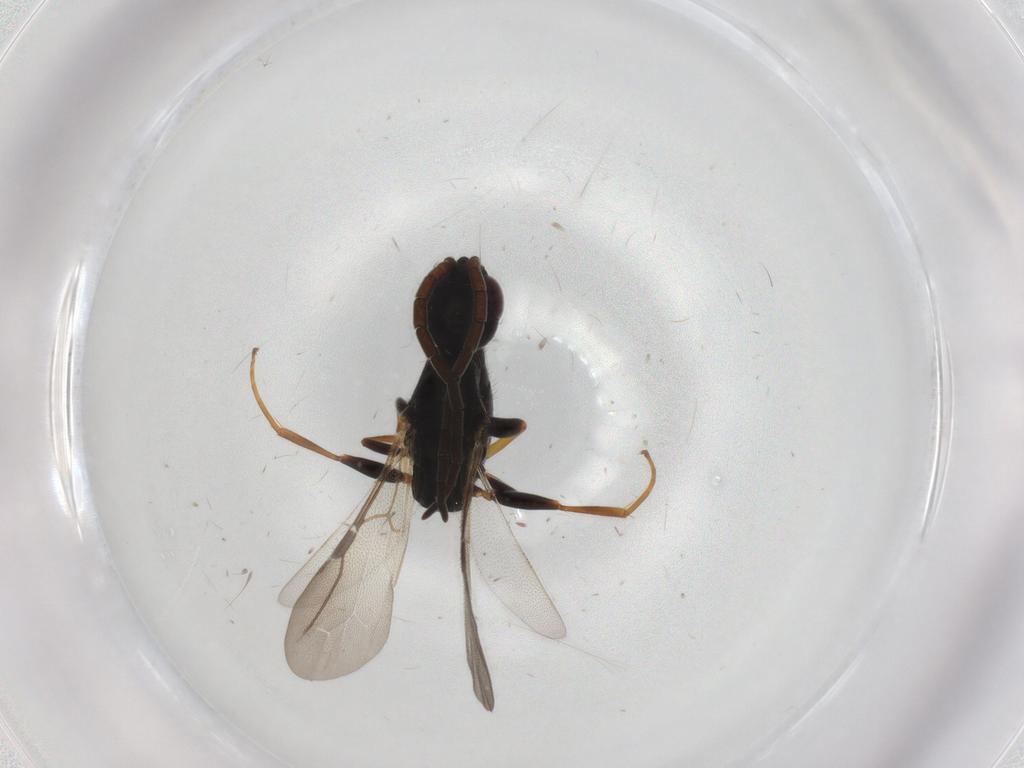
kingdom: Animalia
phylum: Arthropoda
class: Insecta
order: Hymenoptera
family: Bethylidae
